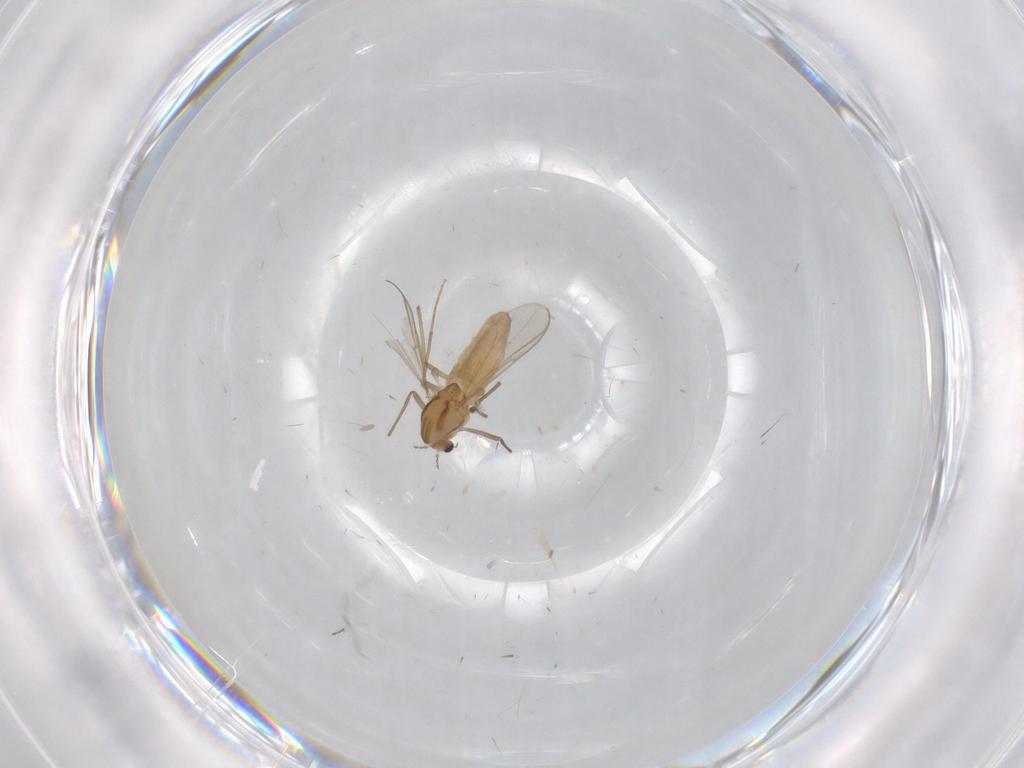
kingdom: Animalia
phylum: Arthropoda
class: Insecta
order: Diptera
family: Chironomidae
